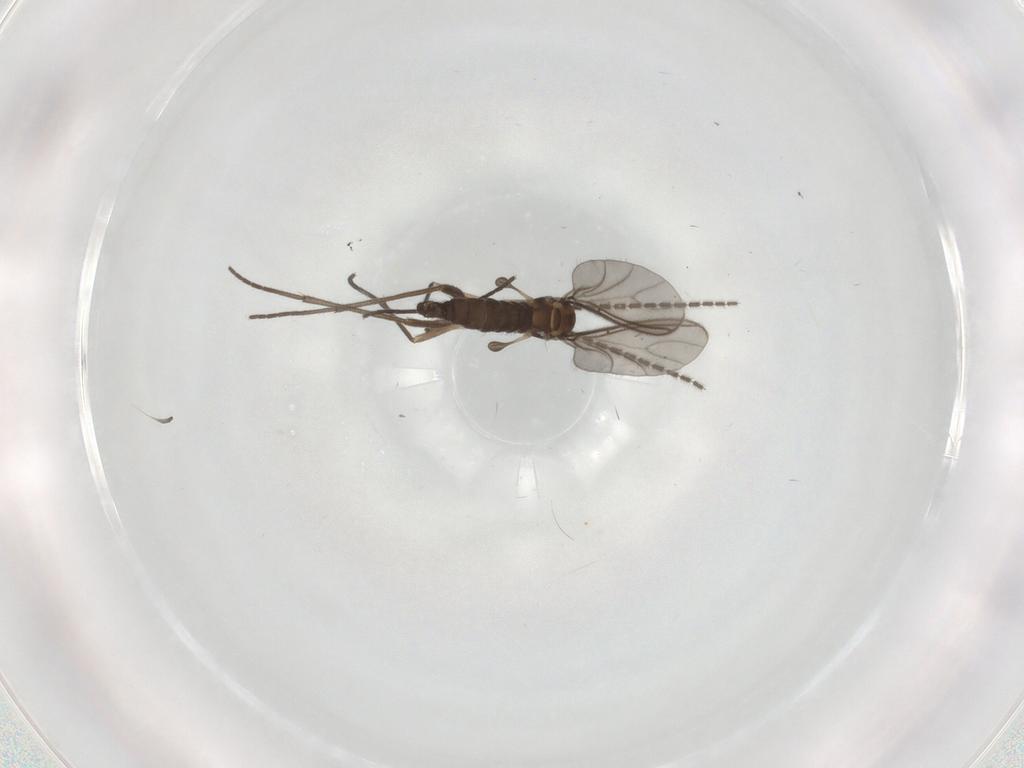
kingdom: Animalia
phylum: Arthropoda
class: Insecta
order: Diptera
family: Sciaridae
